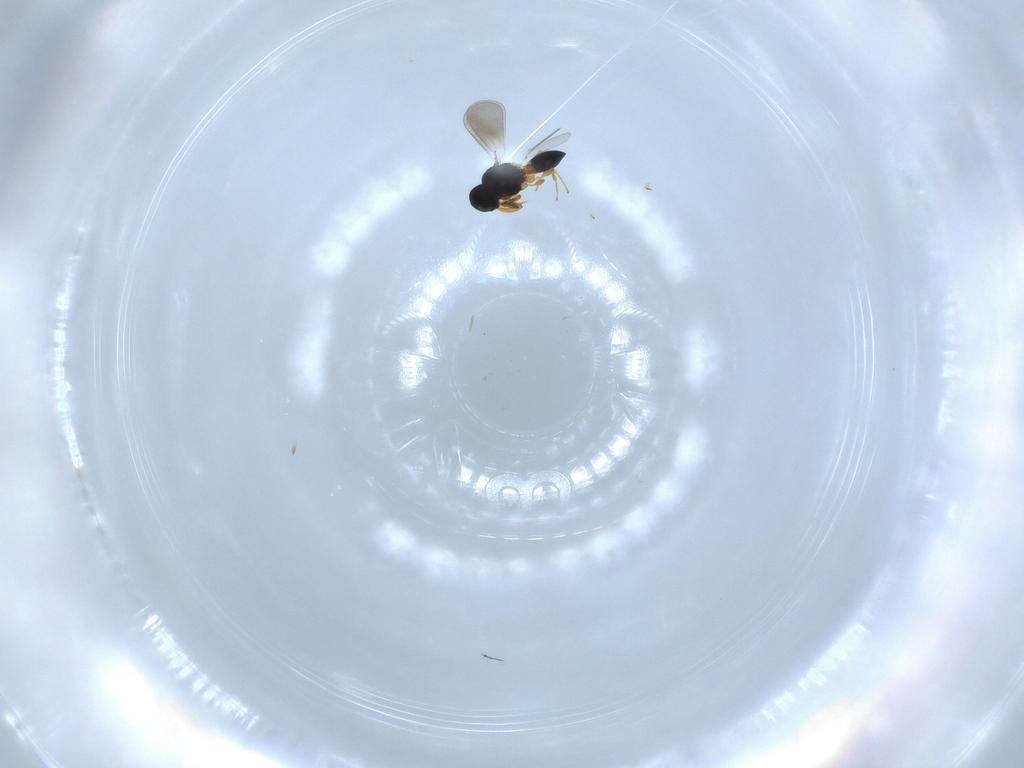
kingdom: Animalia
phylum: Arthropoda
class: Insecta
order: Hymenoptera
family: Platygastridae
